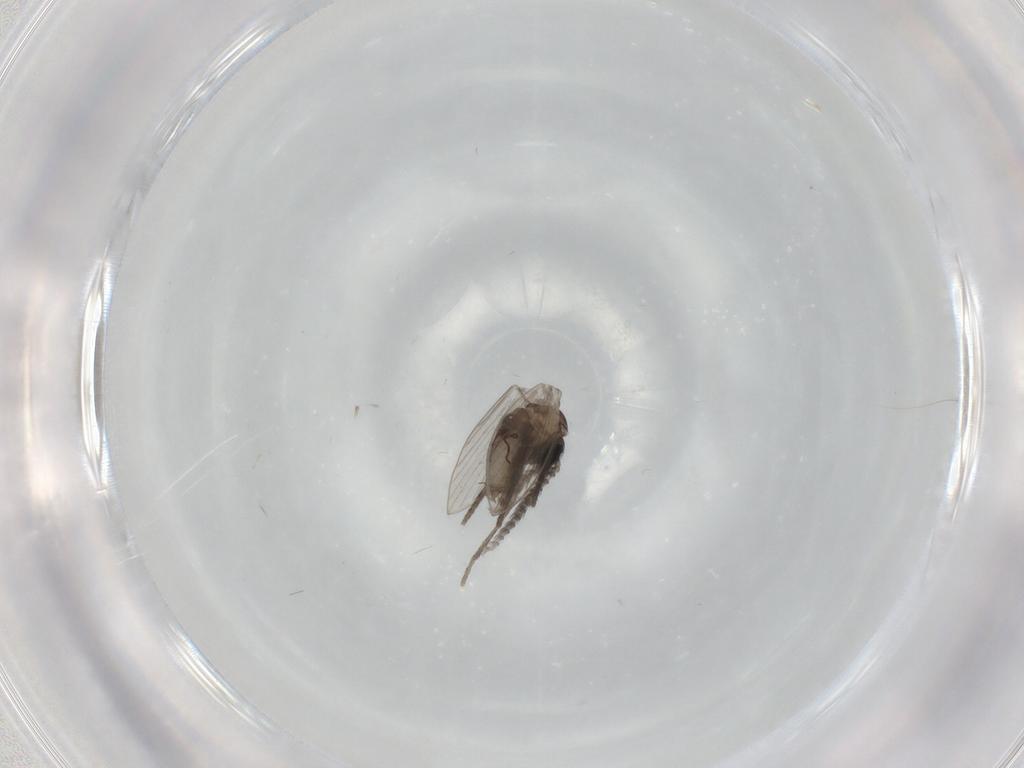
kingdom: Animalia
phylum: Arthropoda
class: Insecta
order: Diptera
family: Psychodidae
